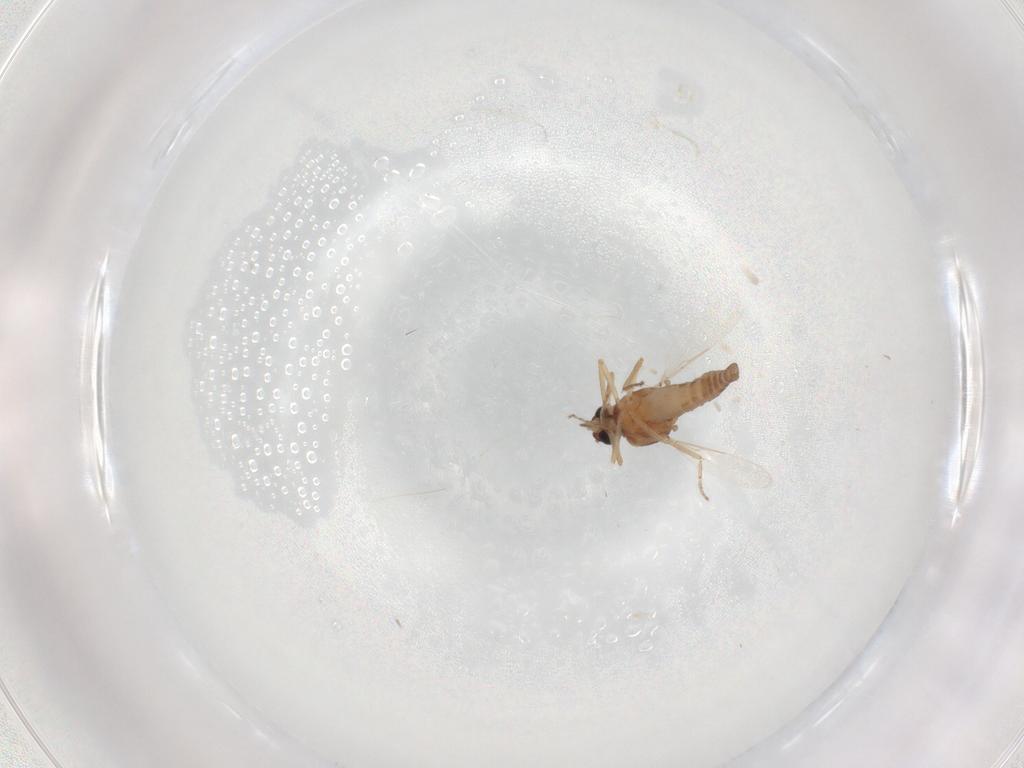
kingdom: Animalia
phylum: Arthropoda
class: Insecta
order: Diptera
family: Ceratopogonidae
